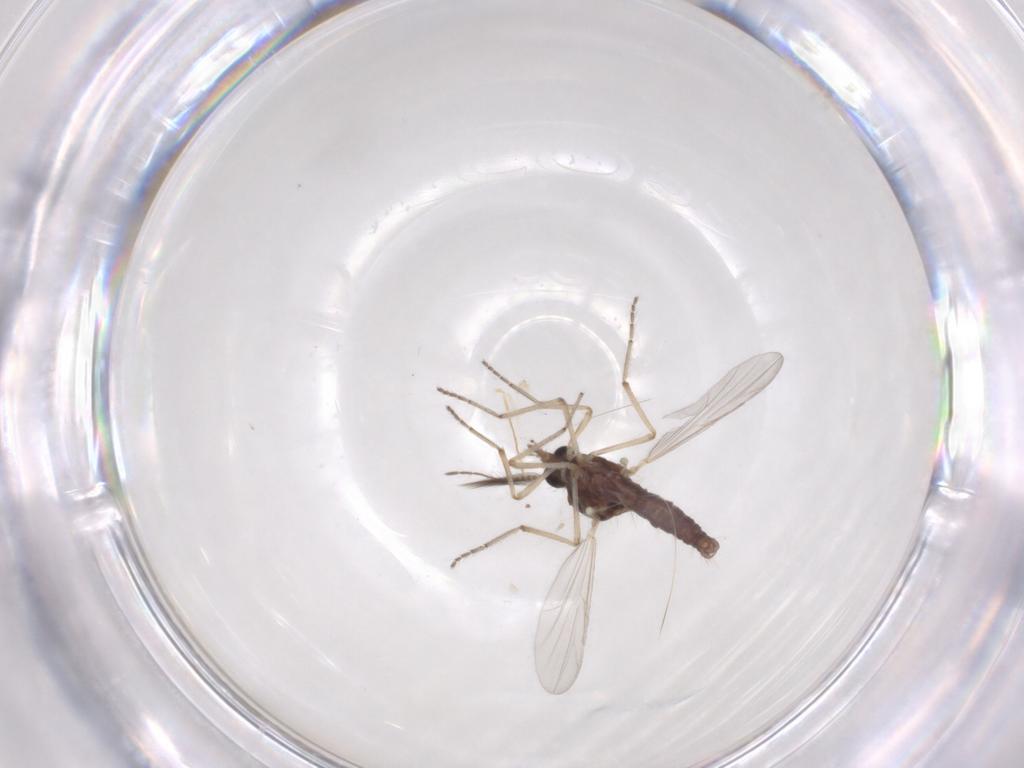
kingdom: Animalia
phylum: Arthropoda
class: Insecta
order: Diptera
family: Ceratopogonidae
